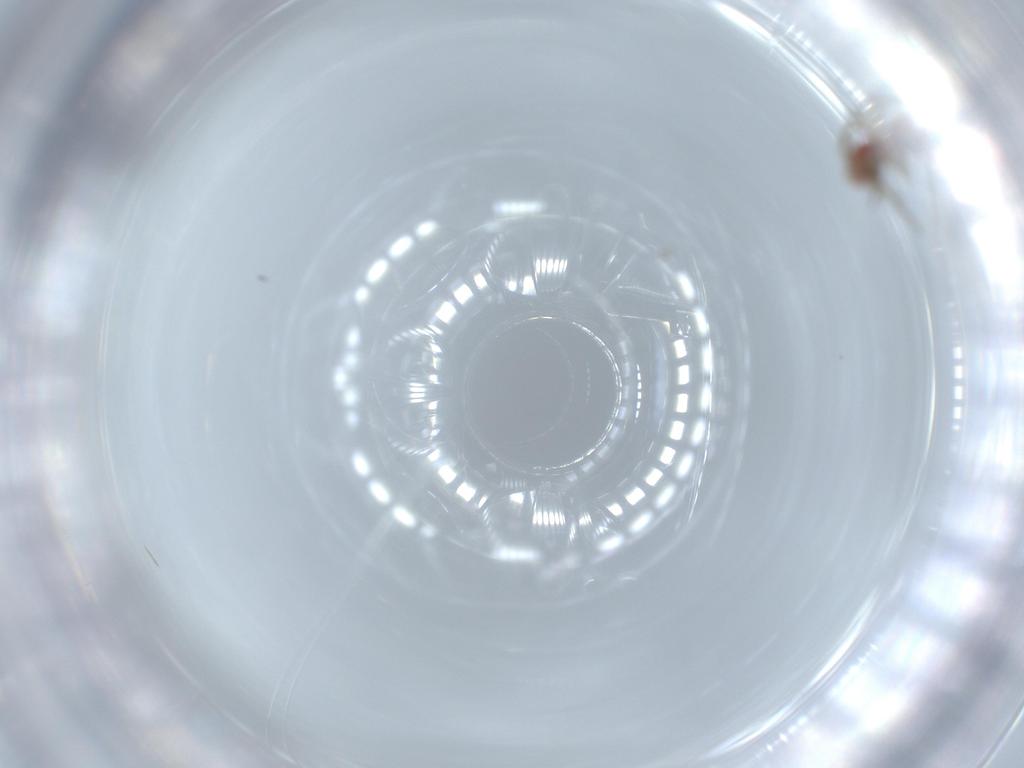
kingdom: Animalia
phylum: Arthropoda
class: Insecta
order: Hemiptera
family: Miridae
